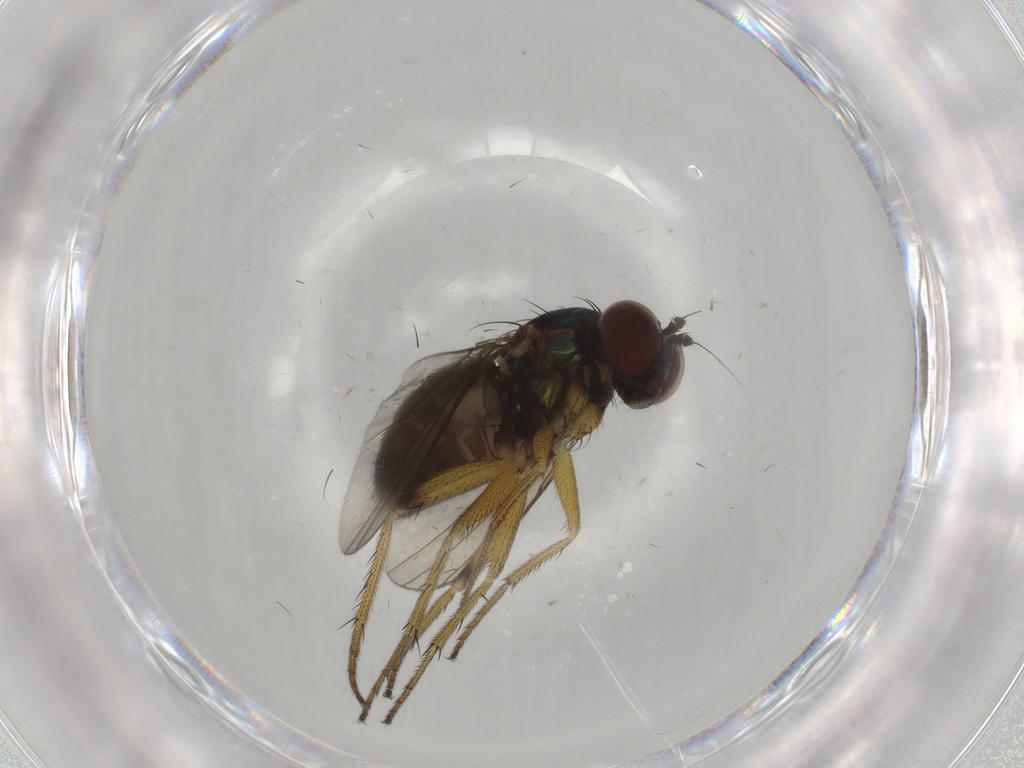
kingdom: Animalia
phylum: Arthropoda
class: Insecta
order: Diptera
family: Dolichopodidae
